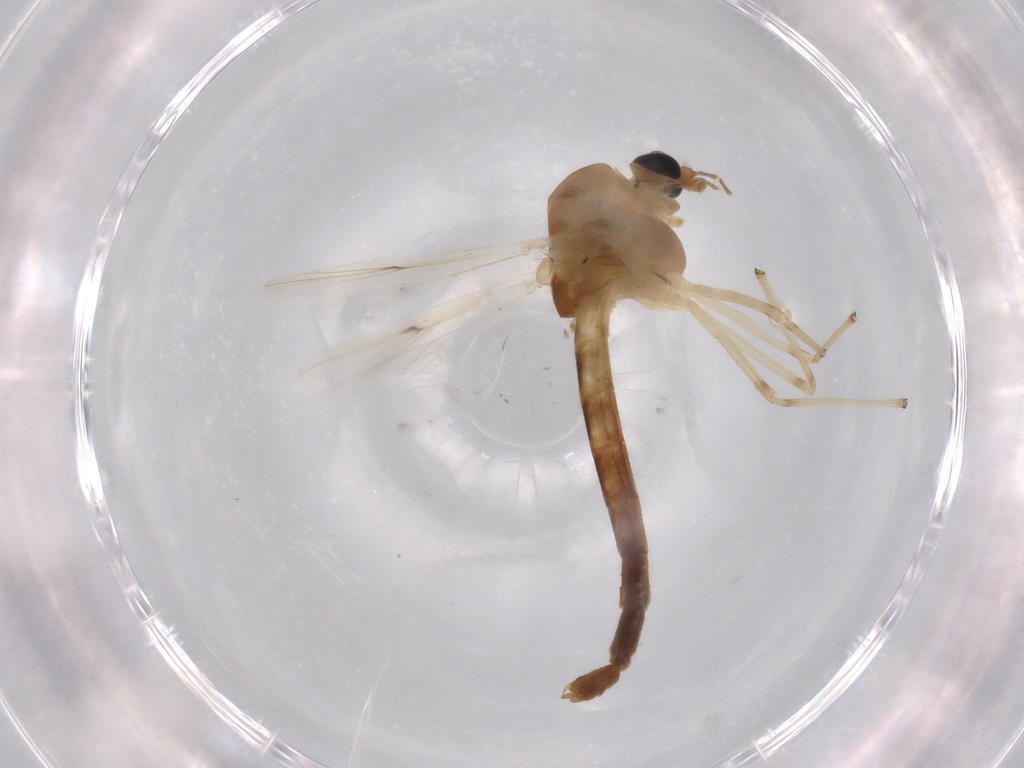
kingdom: Animalia
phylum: Arthropoda
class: Insecta
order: Diptera
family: Chironomidae
